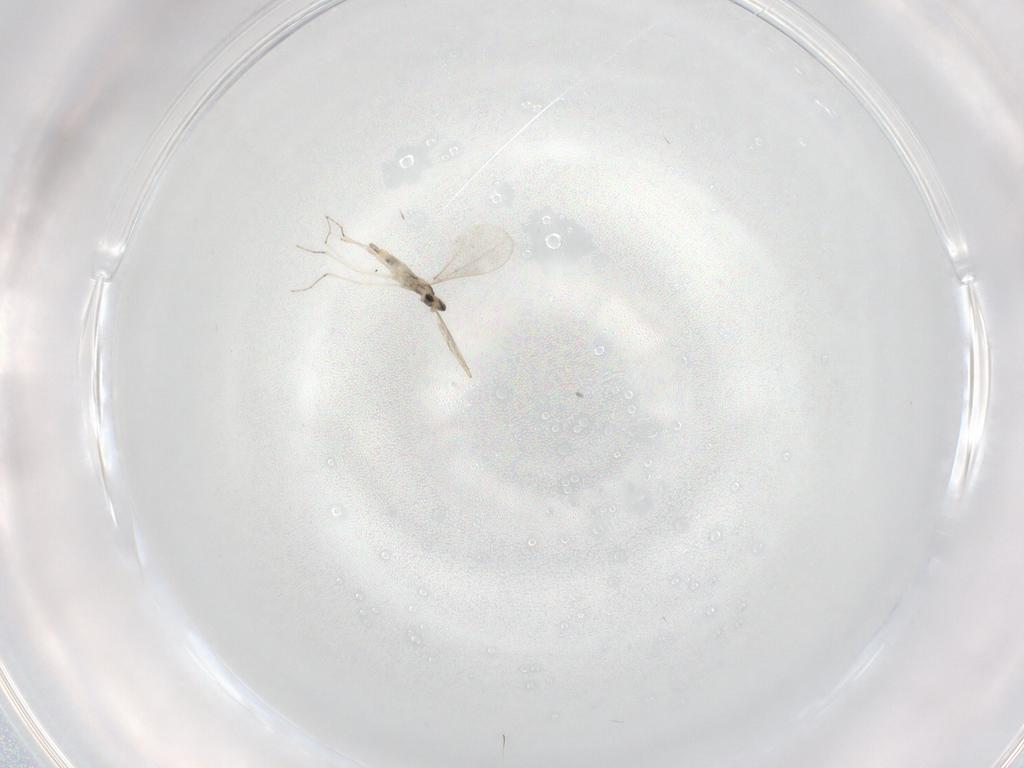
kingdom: Animalia
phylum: Arthropoda
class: Insecta
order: Diptera
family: Cecidomyiidae
